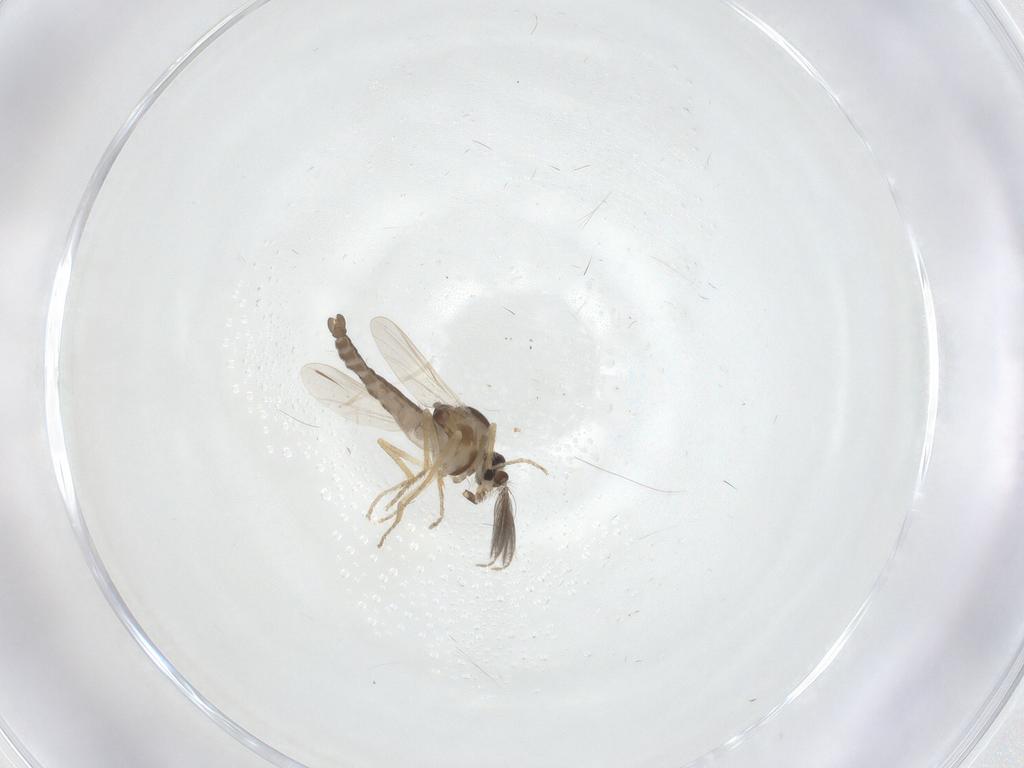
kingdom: Animalia
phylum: Arthropoda
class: Insecta
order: Diptera
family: Ceratopogonidae
